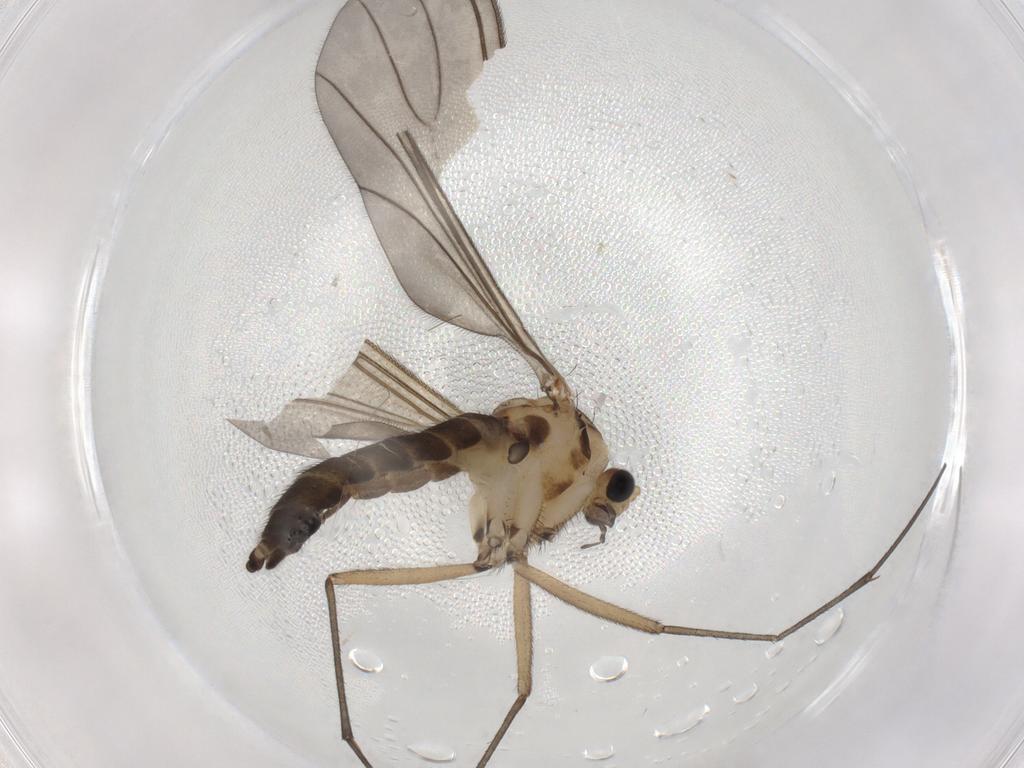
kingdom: Animalia
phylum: Arthropoda
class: Insecta
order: Diptera
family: Sciaridae
